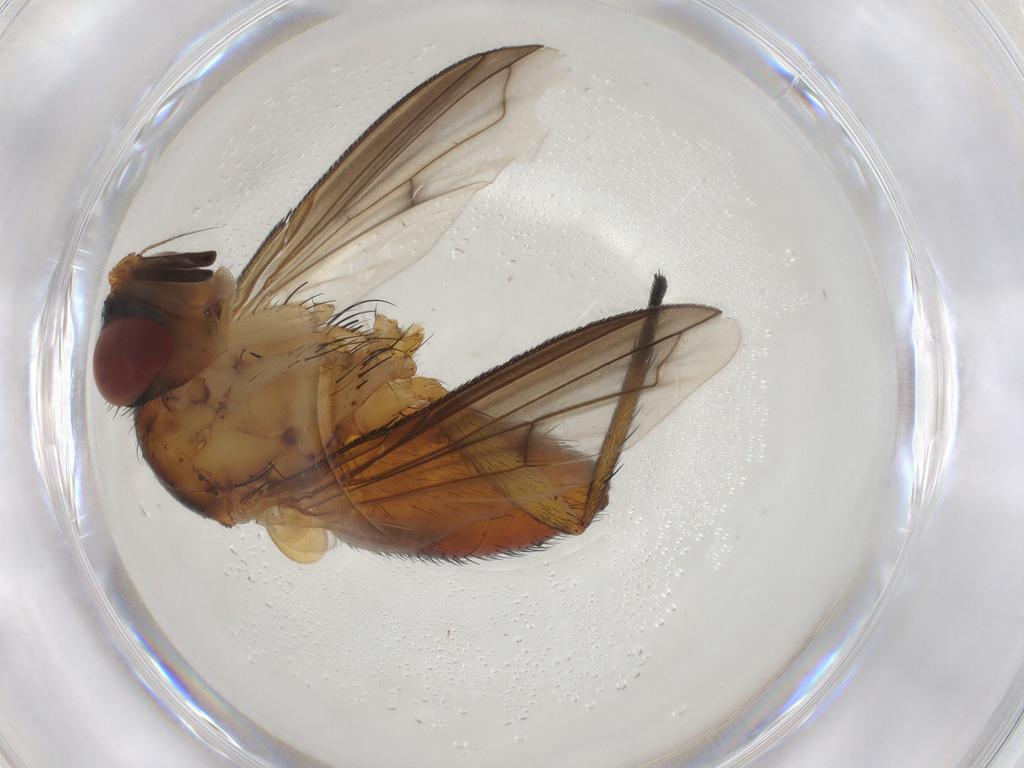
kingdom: Animalia
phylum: Arthropoda
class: Insecta
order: Diptera
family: Tachinidae
